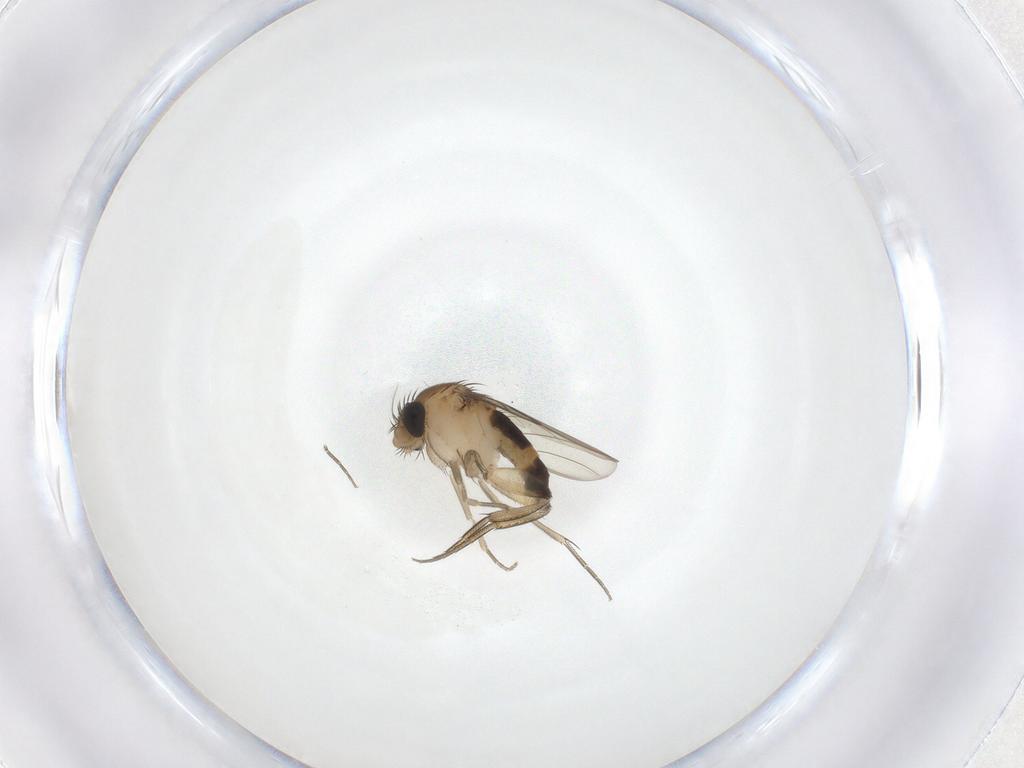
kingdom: Animalia
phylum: Arthropoda
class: Insecta
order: Diptera
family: Phoridae
